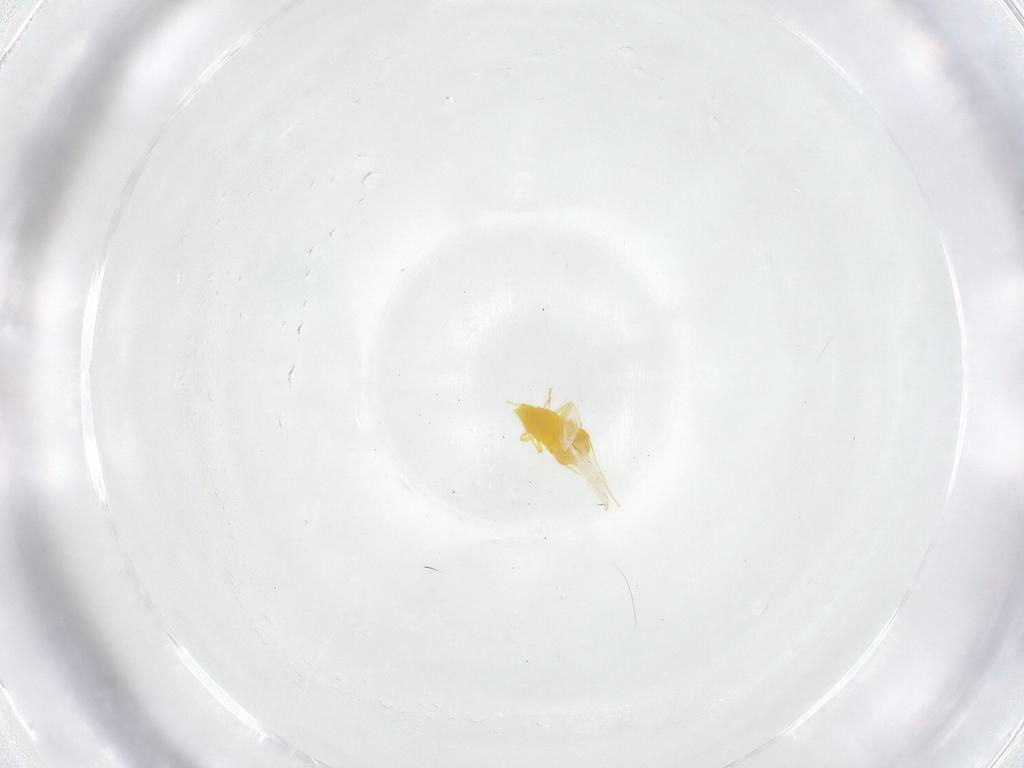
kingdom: Animalia
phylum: Arthropoda
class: Insecta
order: Hemiptera
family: Aleyrodidae
